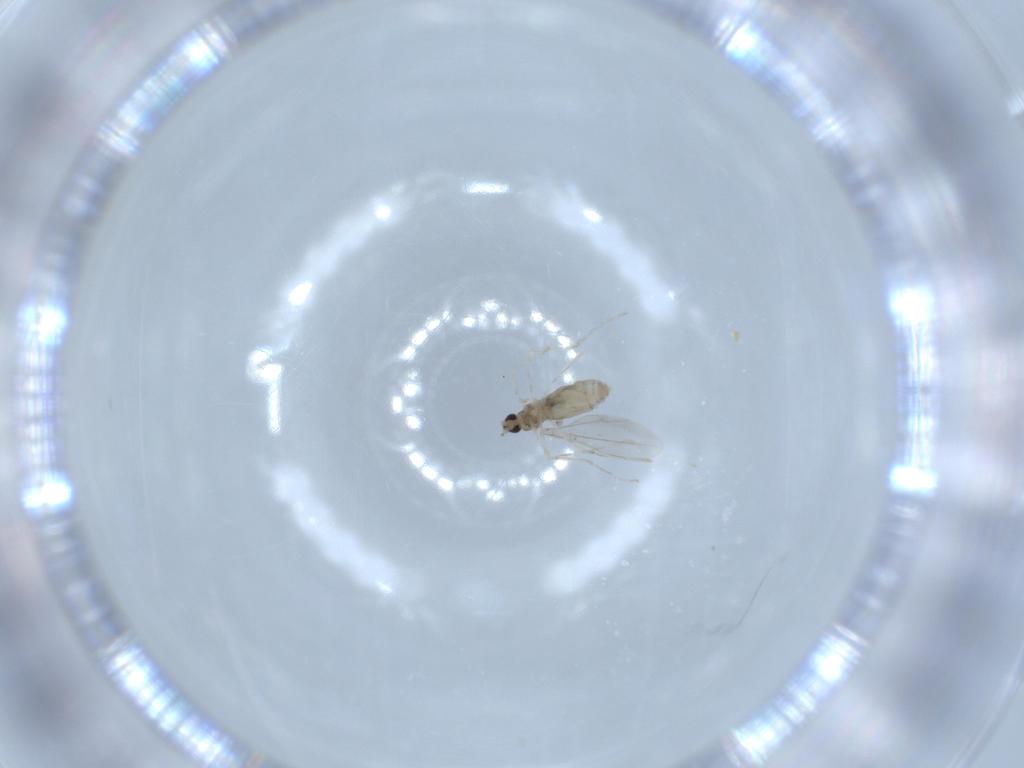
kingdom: Animalia
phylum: Arthropoda
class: Insecta
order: Diptera
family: Cecidomyiidae
